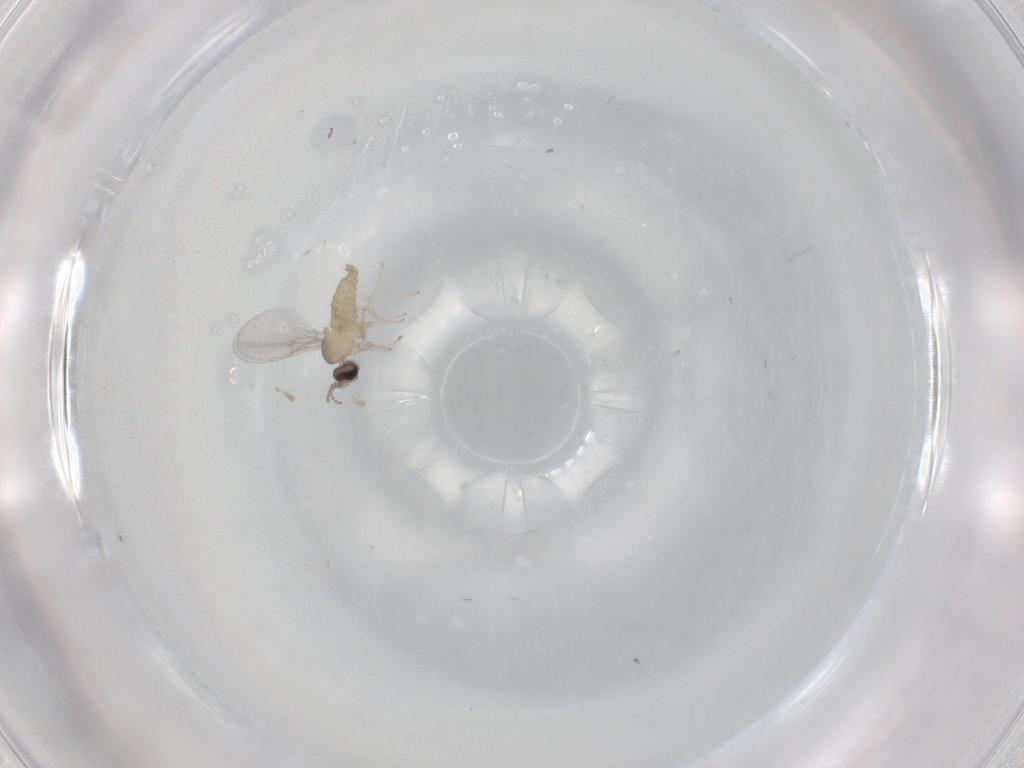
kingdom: Animalia
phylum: Arthropoda
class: Insecta
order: Diptera
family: Cecidomyiidae
